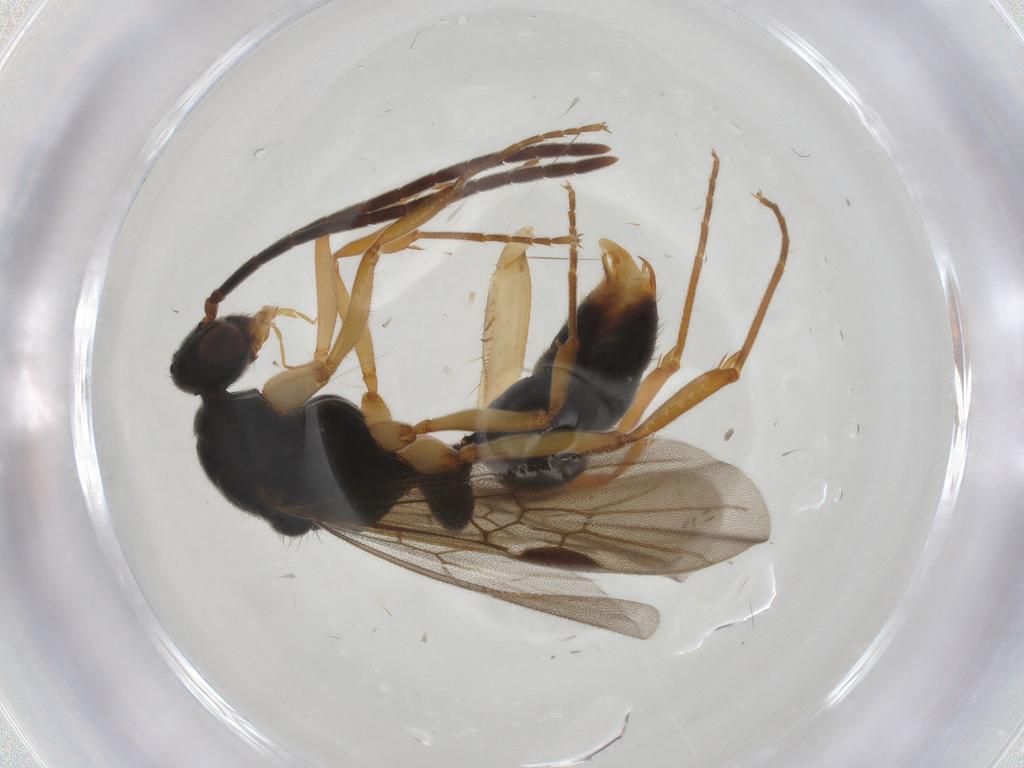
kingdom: Animalia
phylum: Arthropoda
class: Insecta
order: Hymenoptera
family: Formicidae
